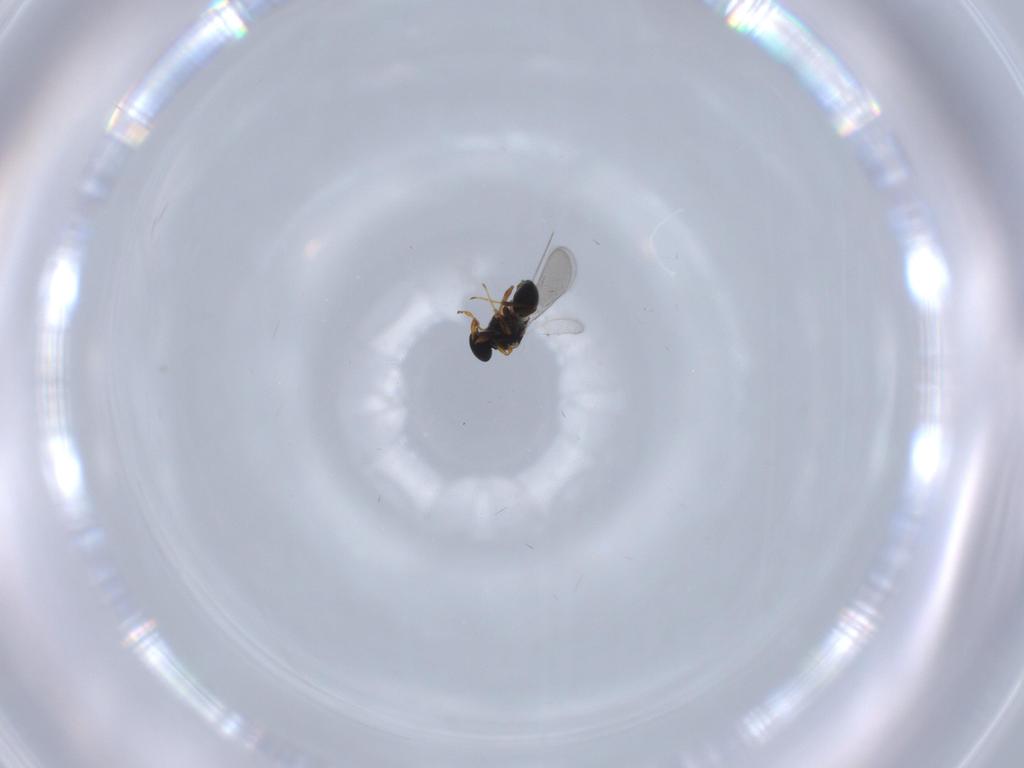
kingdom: Animalia
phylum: Arthropoda
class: Insecta
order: Hymenoptera
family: Platygastridae
